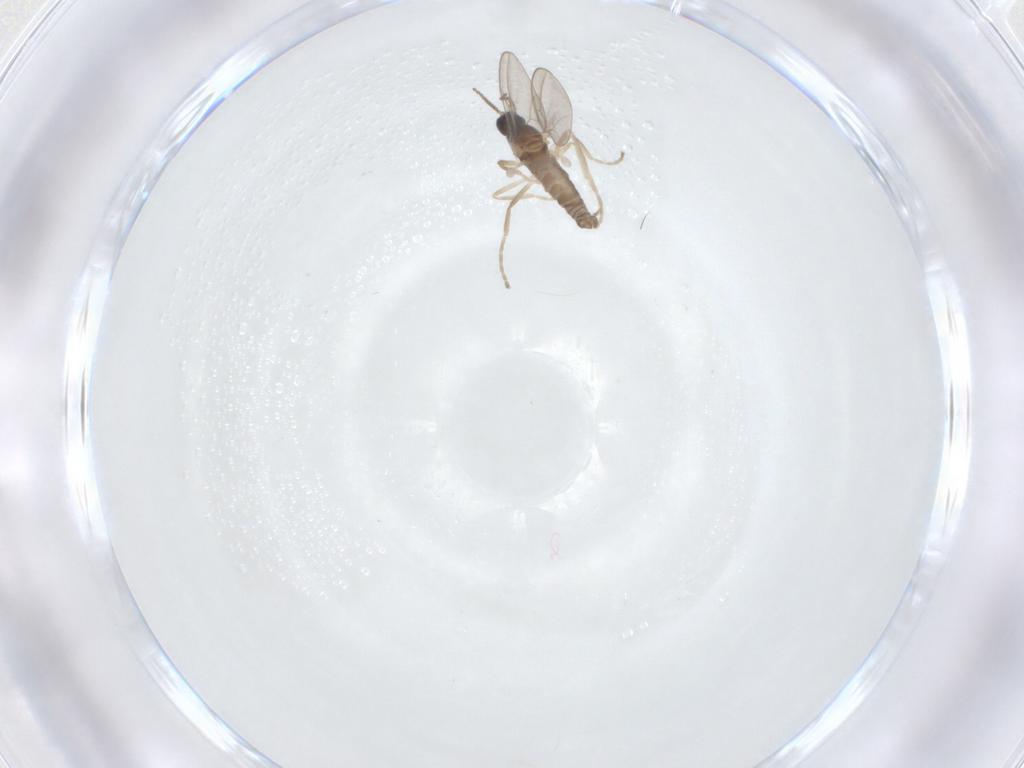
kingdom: Animalia
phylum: Arthropoda
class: Insecta
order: Diptera
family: Cecidomyiidae
